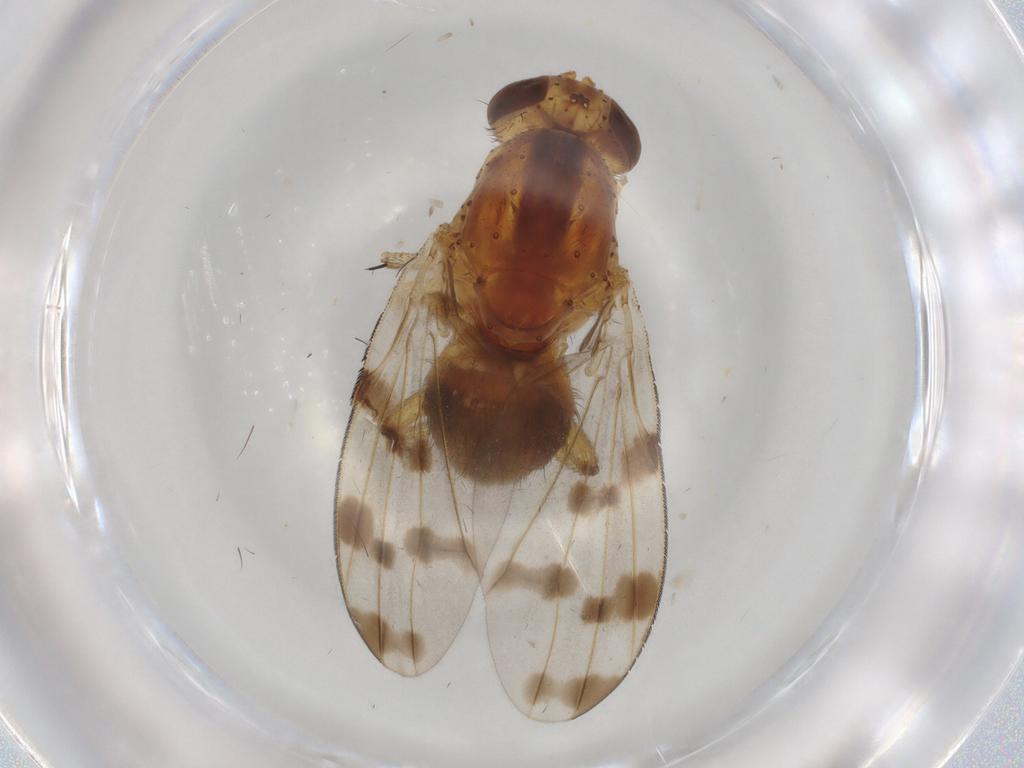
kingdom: Animalia
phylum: Arthropoda
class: Insecta
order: Diptera
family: Lauxaniidae
